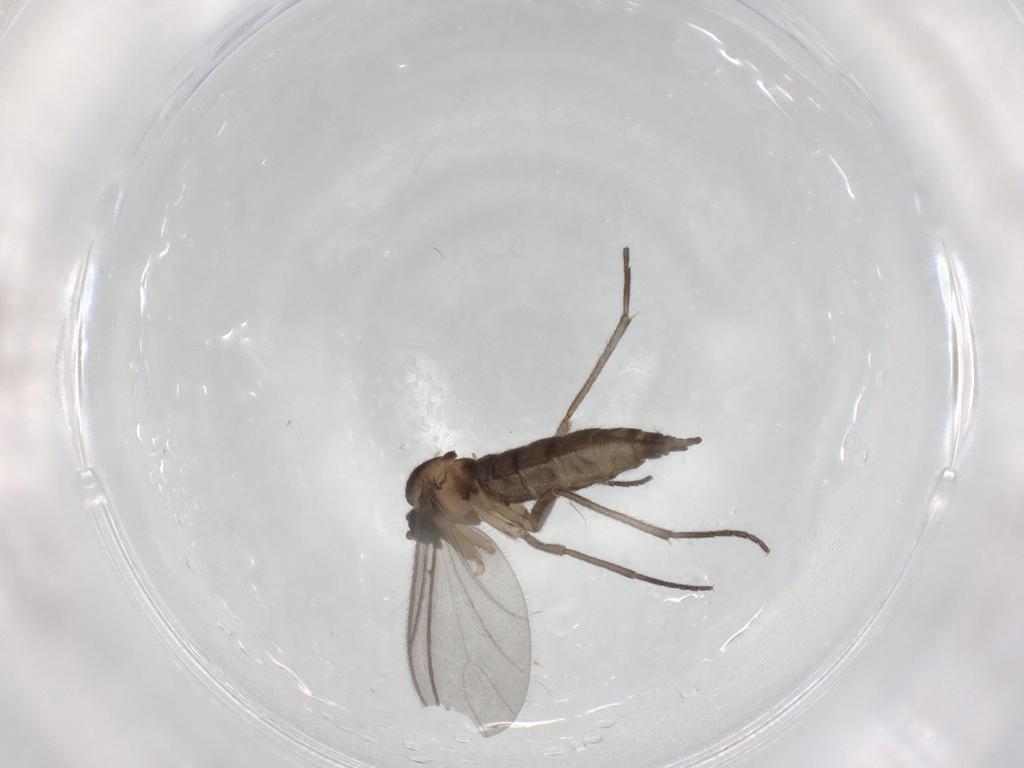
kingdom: Animalia
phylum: Arthropoda
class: Insecta
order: Diptera
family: Sciaridae
